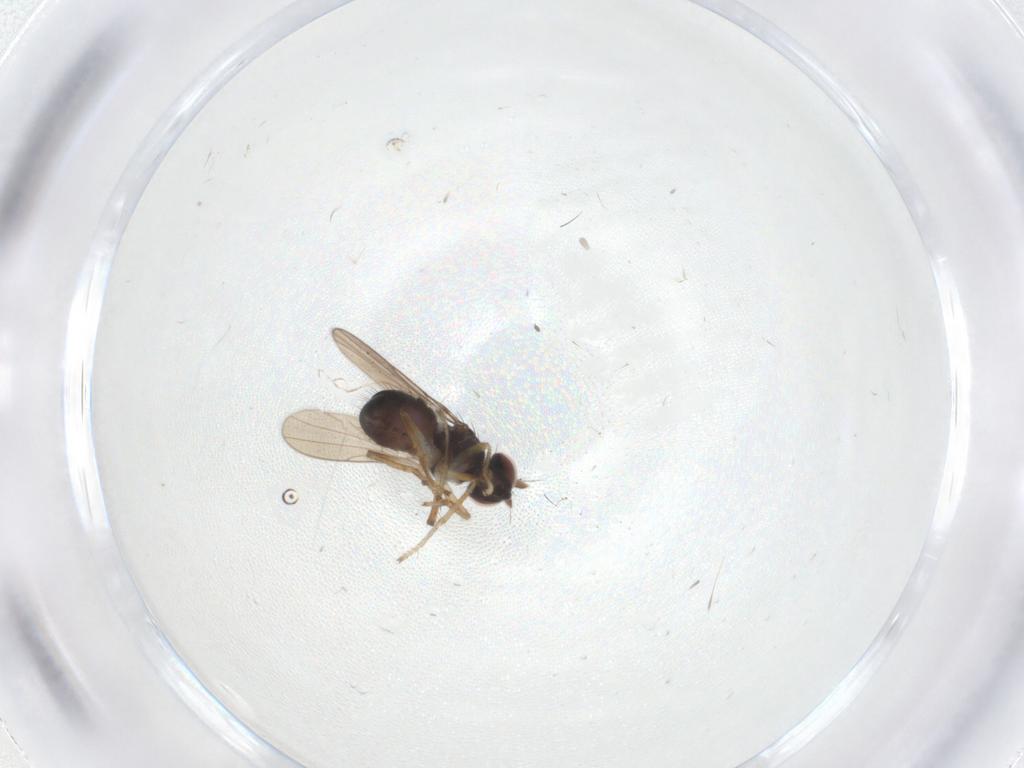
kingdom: Animalia
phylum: Arthropoda
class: Insecta
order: Diptera
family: Ephydridae
